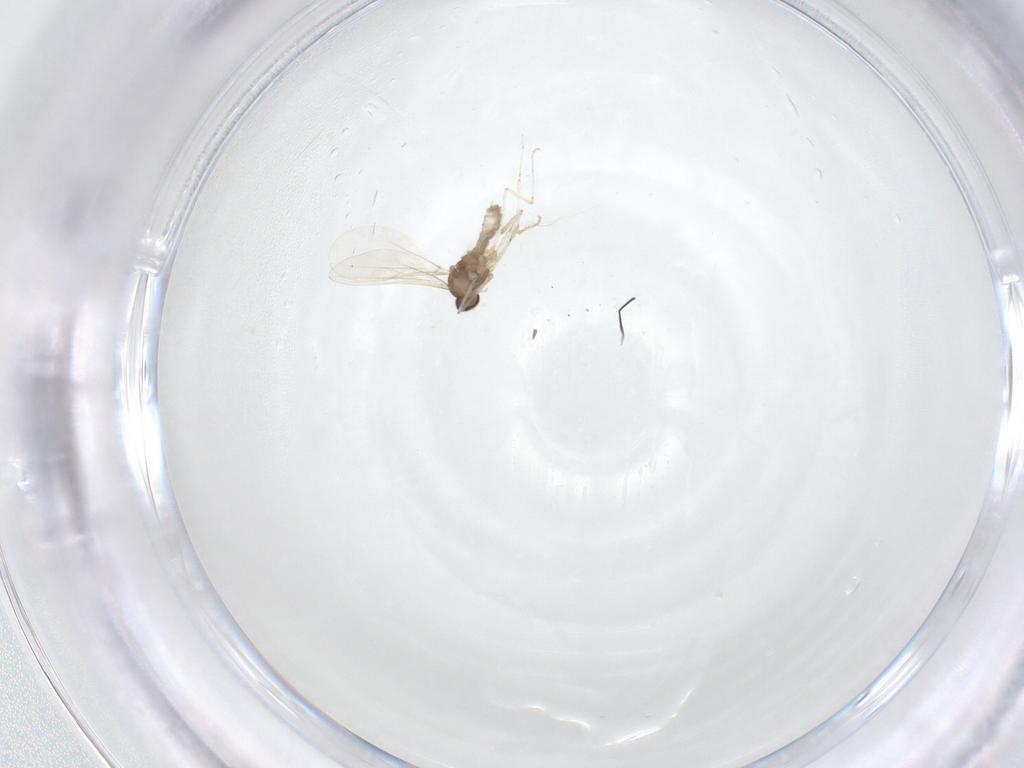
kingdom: Animalia
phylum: Arthropoda
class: Insecta
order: Diptera
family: Cecidomyiidae
